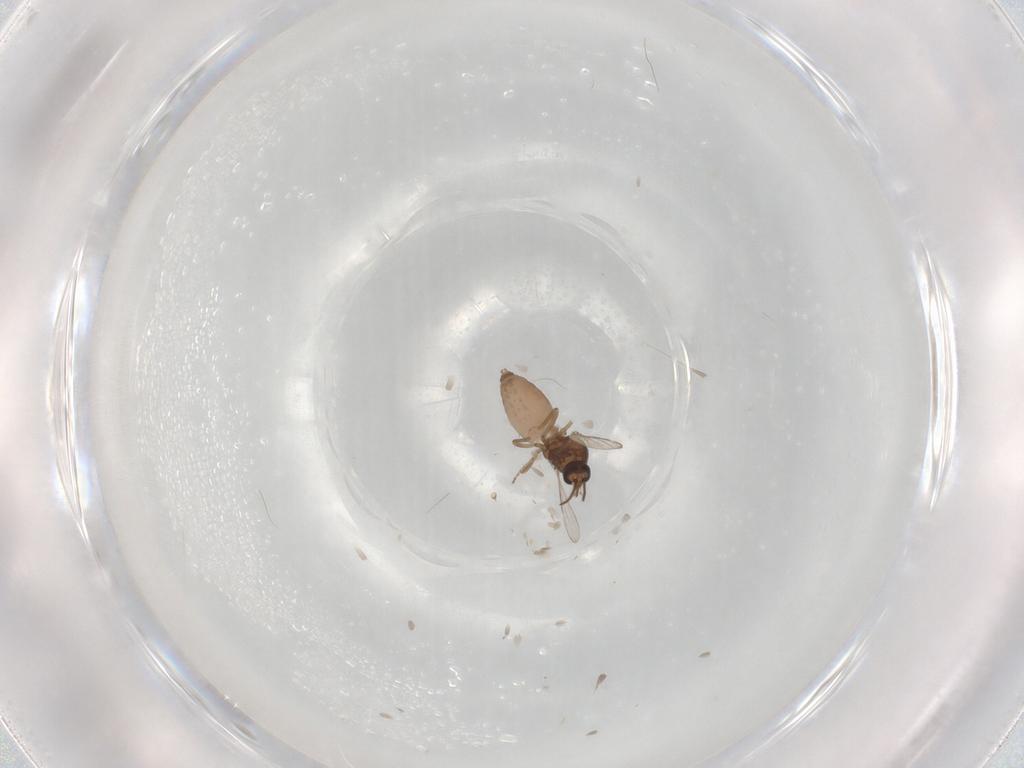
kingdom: Animalia
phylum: Arthropoda
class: Insecta
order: Diptera
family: Ceratopogonidae
